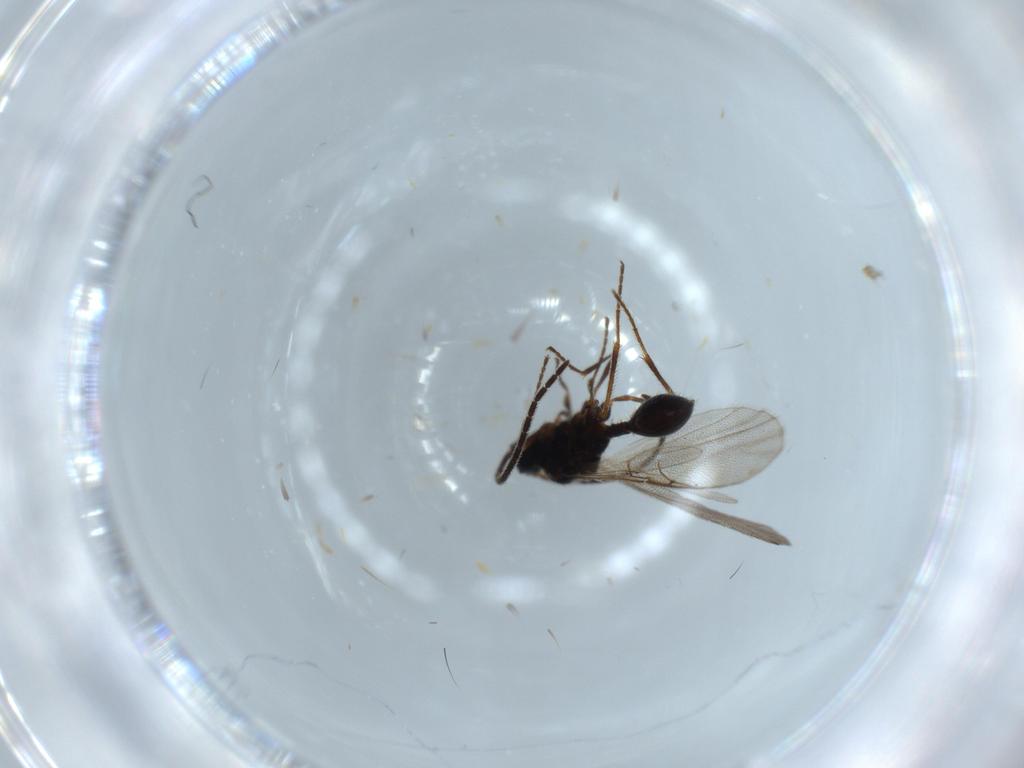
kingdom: Animalia
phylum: Arthropoda
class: Insecta
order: Hymenoptera
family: Diapriidae
